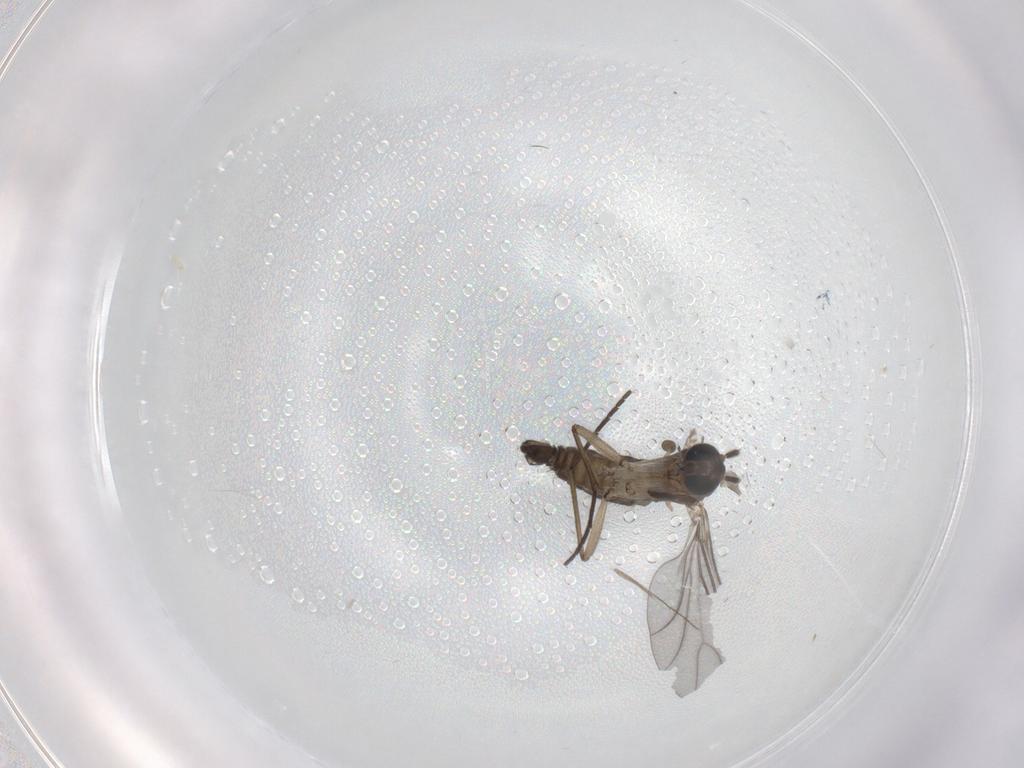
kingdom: Animalia
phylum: Arthropoda
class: Insecta
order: Diptera
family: Sciaridae
